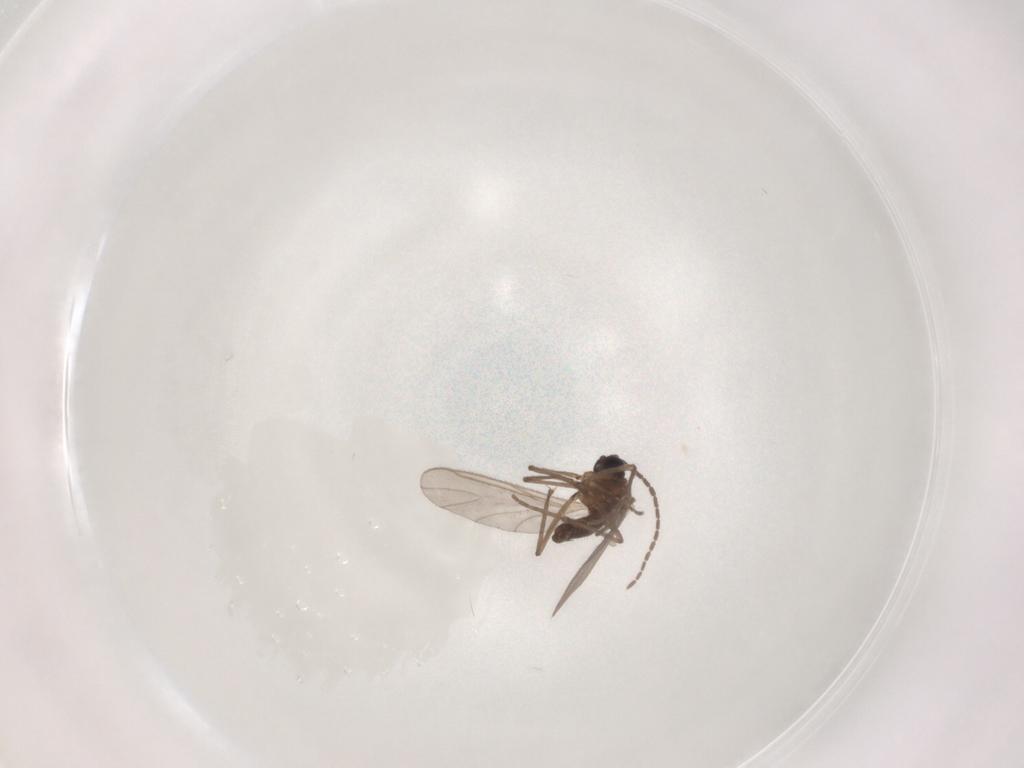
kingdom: Animalia
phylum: Arthropoda
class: Insecta
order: Diptera
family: Sciaridae
